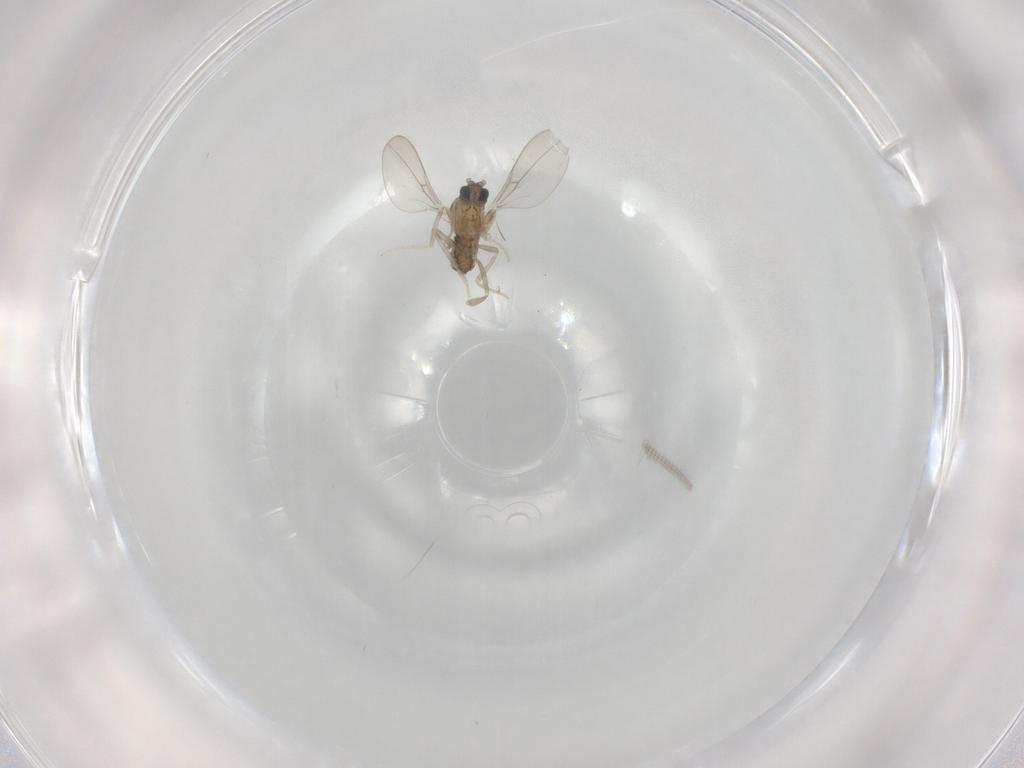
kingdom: Animalia
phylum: Arthropoda
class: Insecta
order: Diptera
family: Cecidomyiidae
